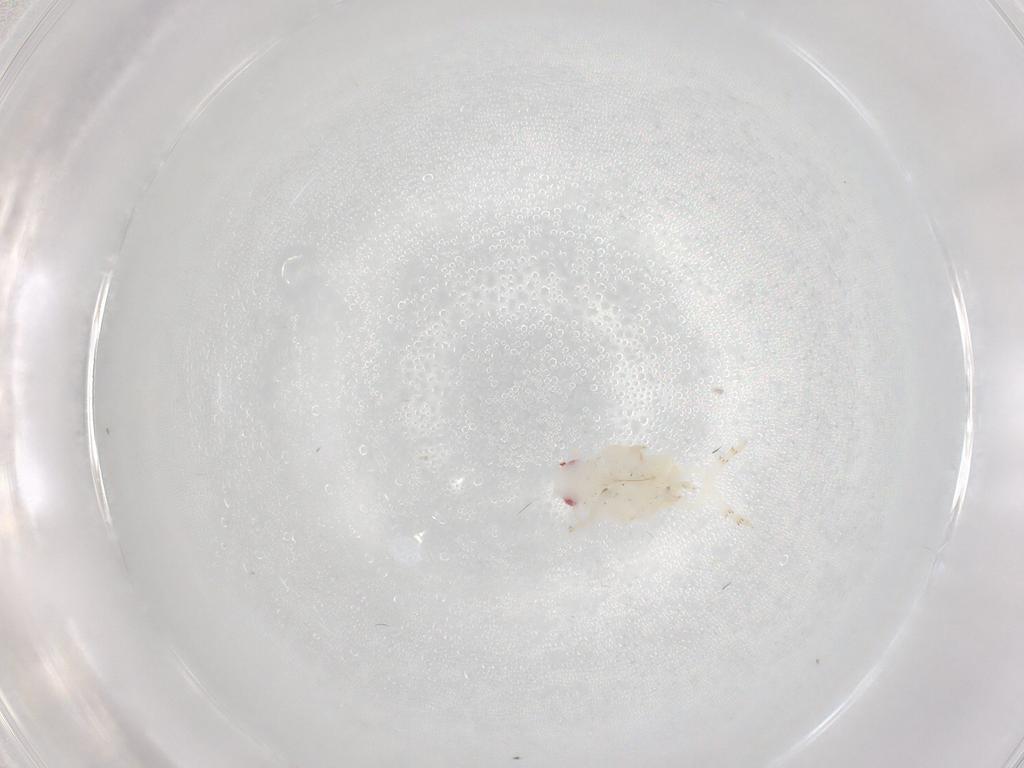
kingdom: Animalia
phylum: Arthropoda
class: Insecta
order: Hemiptera
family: Flatidae
